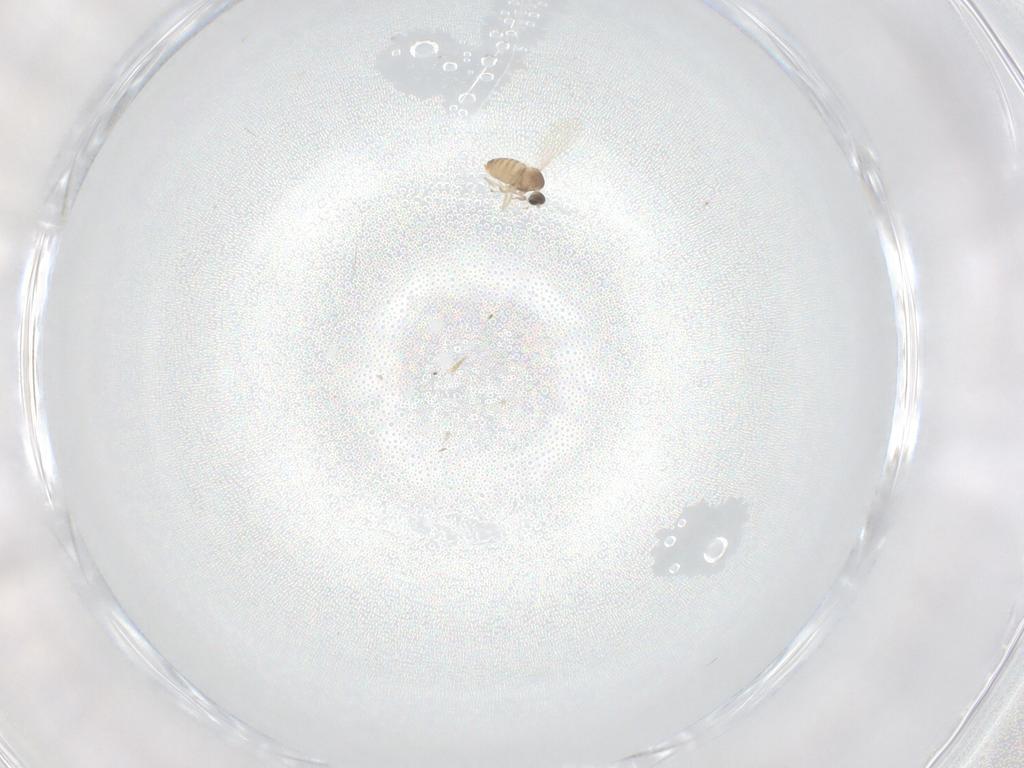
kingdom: Animalia
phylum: Arthropoda
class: Insecta
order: Diptera
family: Cecidomyiidae
